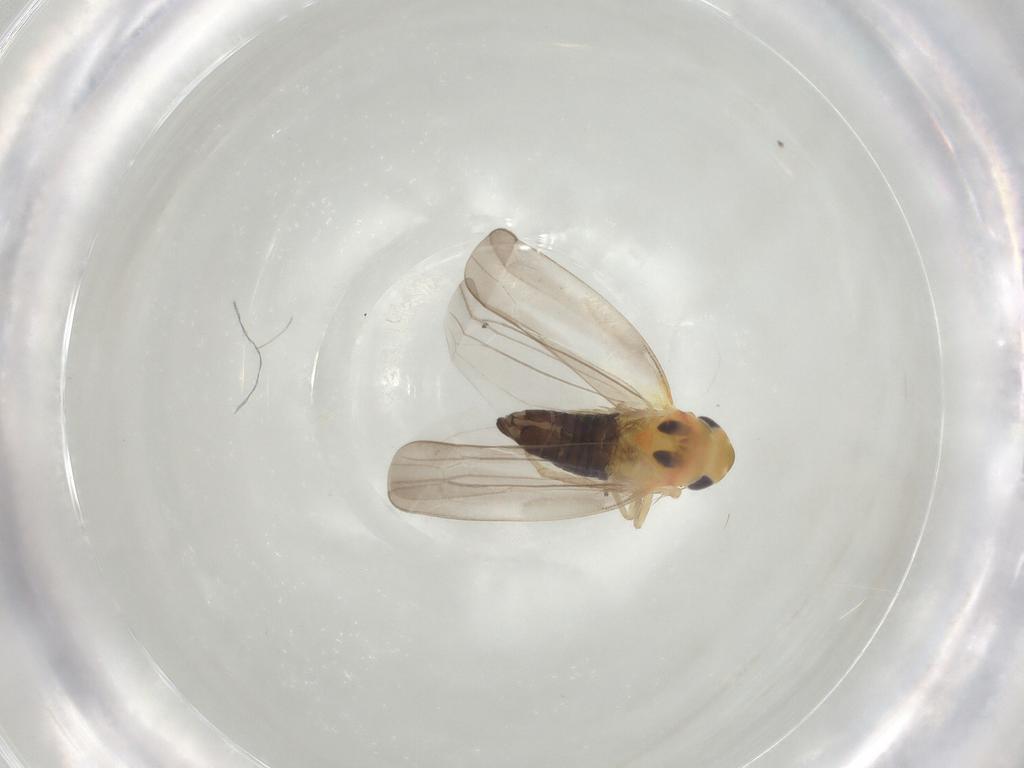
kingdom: Animalia
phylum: Arthropoda
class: Insecta
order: Hemiptera
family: Cicadellidae
